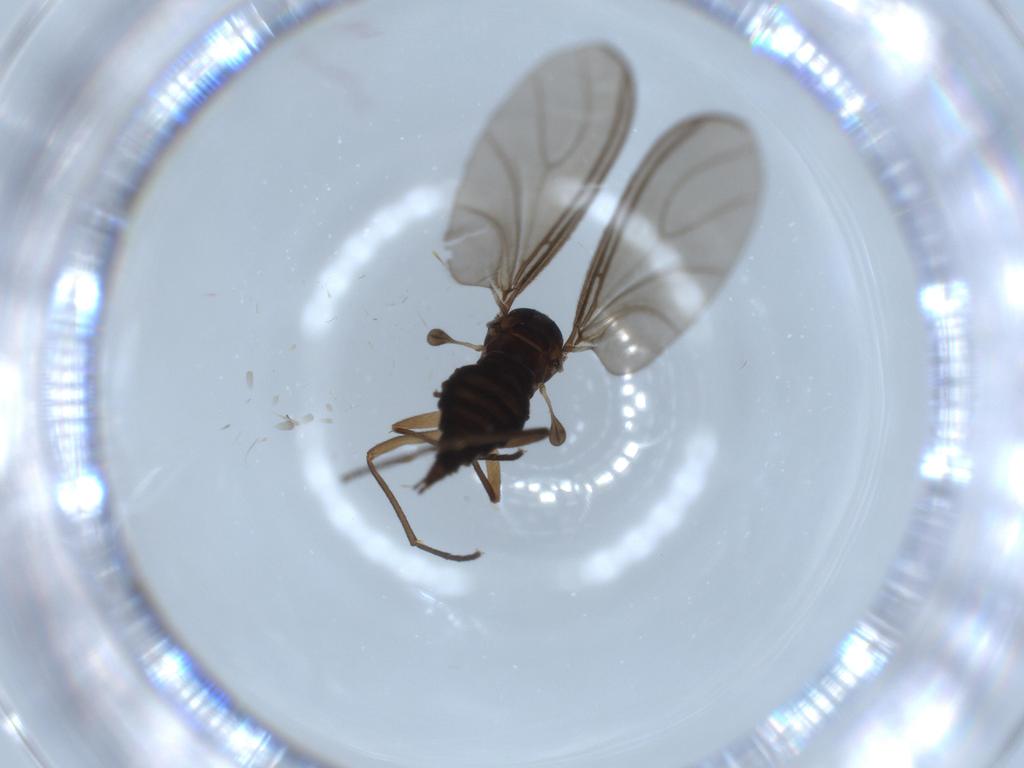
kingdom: Animalia
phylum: Arthropoda
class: Insecta
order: Diptera
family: Sciaridae
